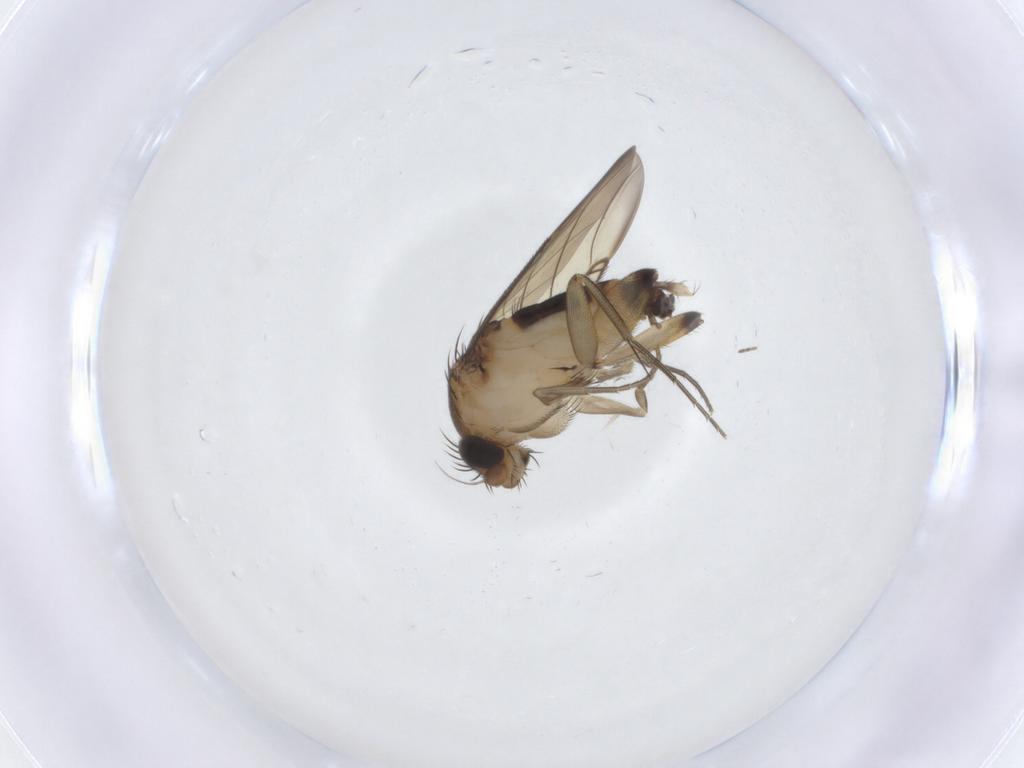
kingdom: Animalia
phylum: Arthropoda
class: Insecta
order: Diptera
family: Phoridae
